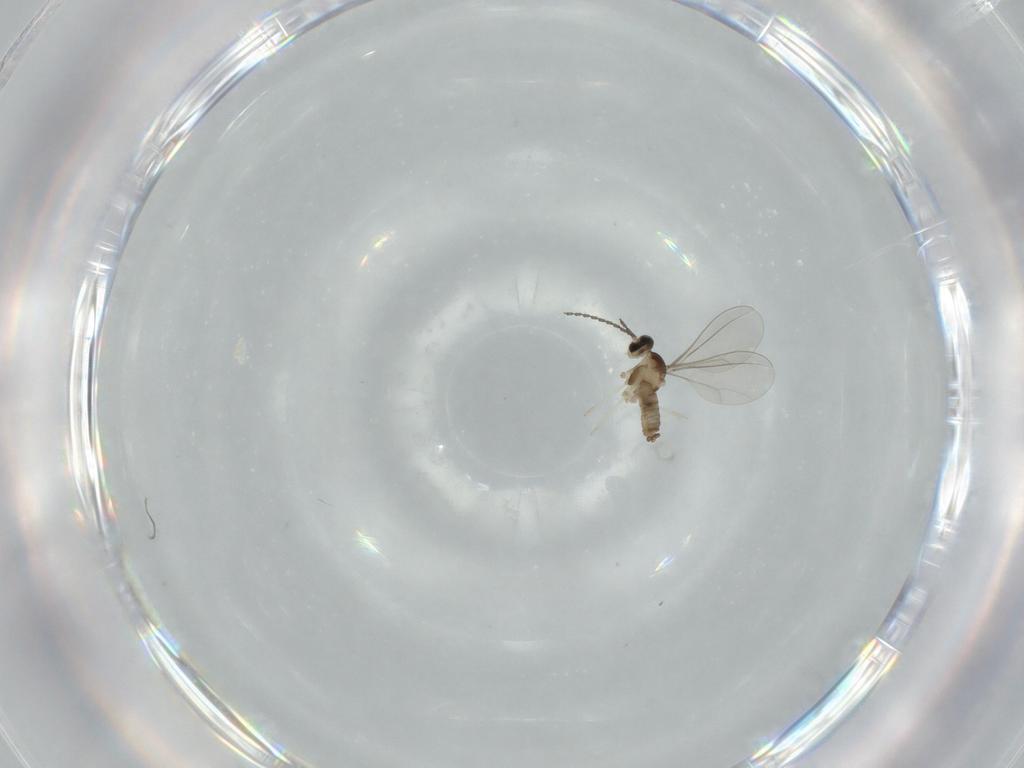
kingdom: Animalia
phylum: Arthropoda
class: Insecta
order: Diptera
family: Cecidomyiidae
